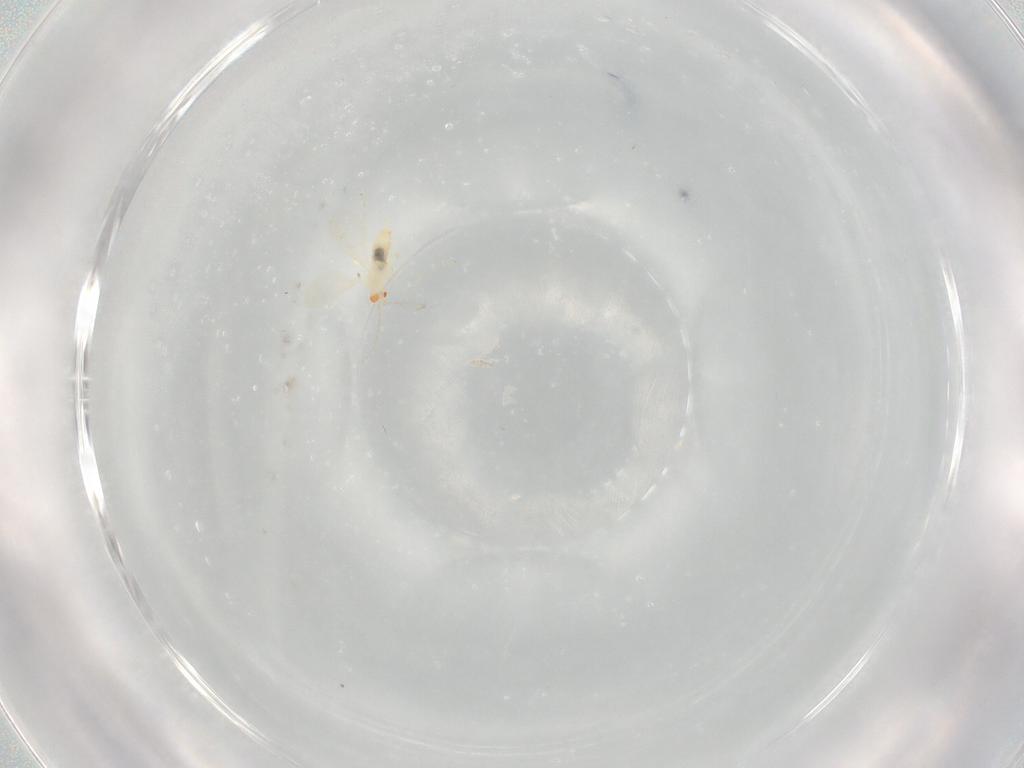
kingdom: Animalia
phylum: Arthropoda
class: Insecta
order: Diptera
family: Cecidomyiidae
